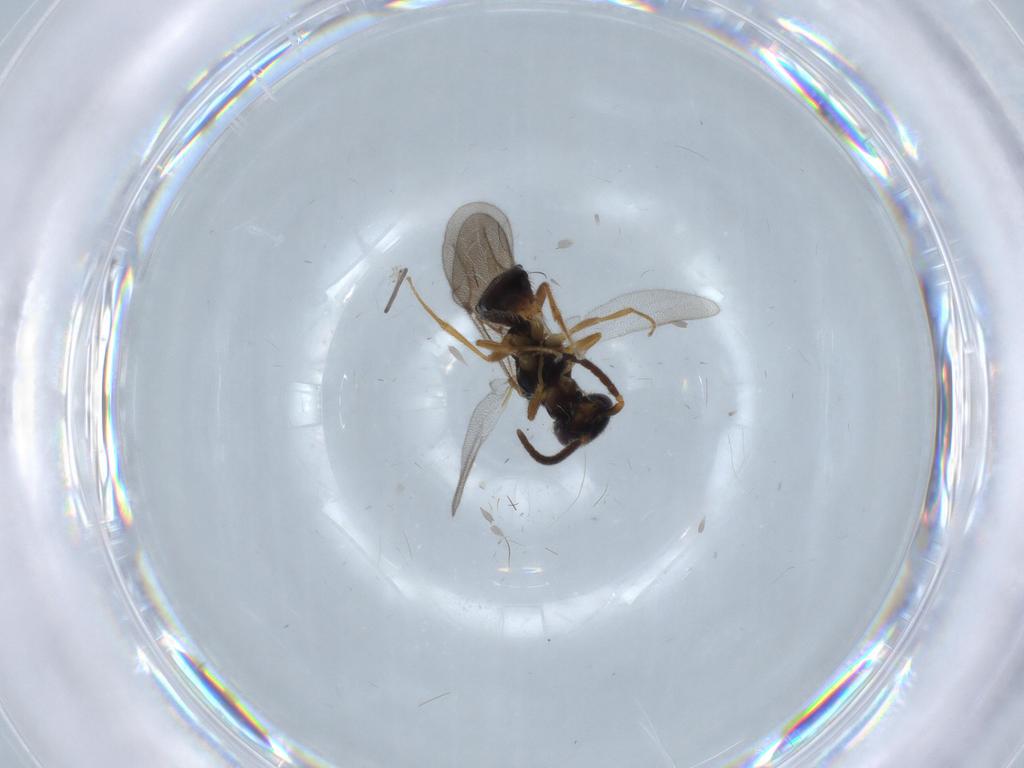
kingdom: Animalia
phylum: Arthropoda
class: Insecta
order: Hymenoptera
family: Bethylidae
